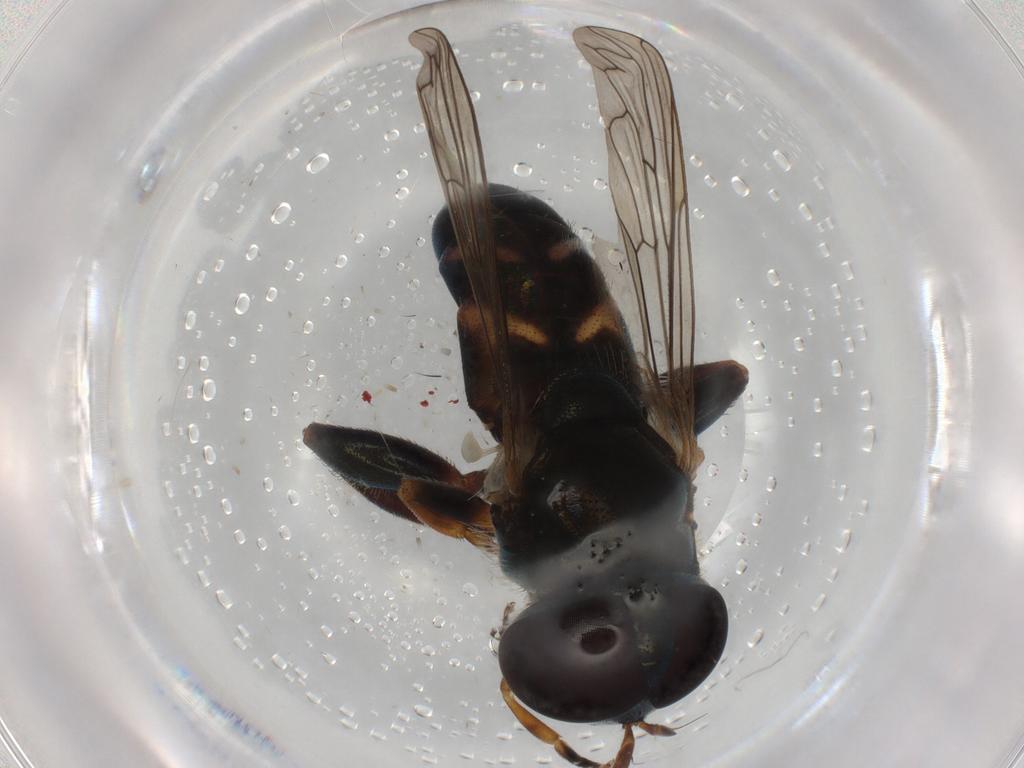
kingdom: Animalia
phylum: Arthropoda
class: Insecta
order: Diptera
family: Syrphidae
